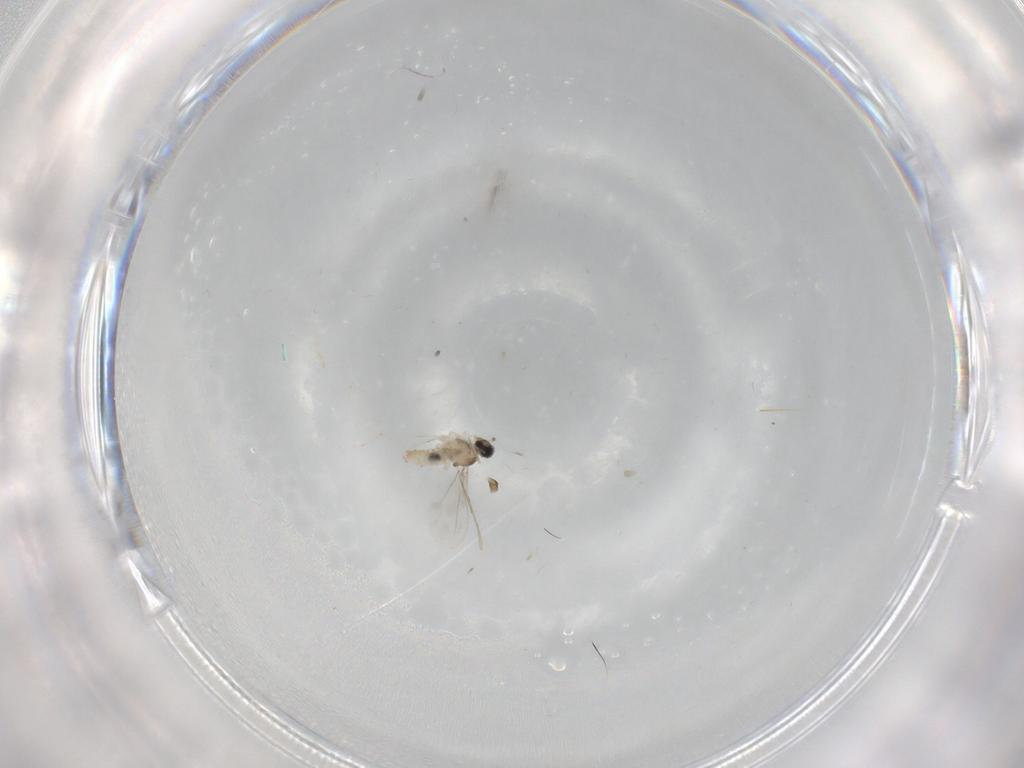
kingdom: Animalia
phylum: Arthropoda
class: Insecta
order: Diptera
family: Cecidomyiidae
